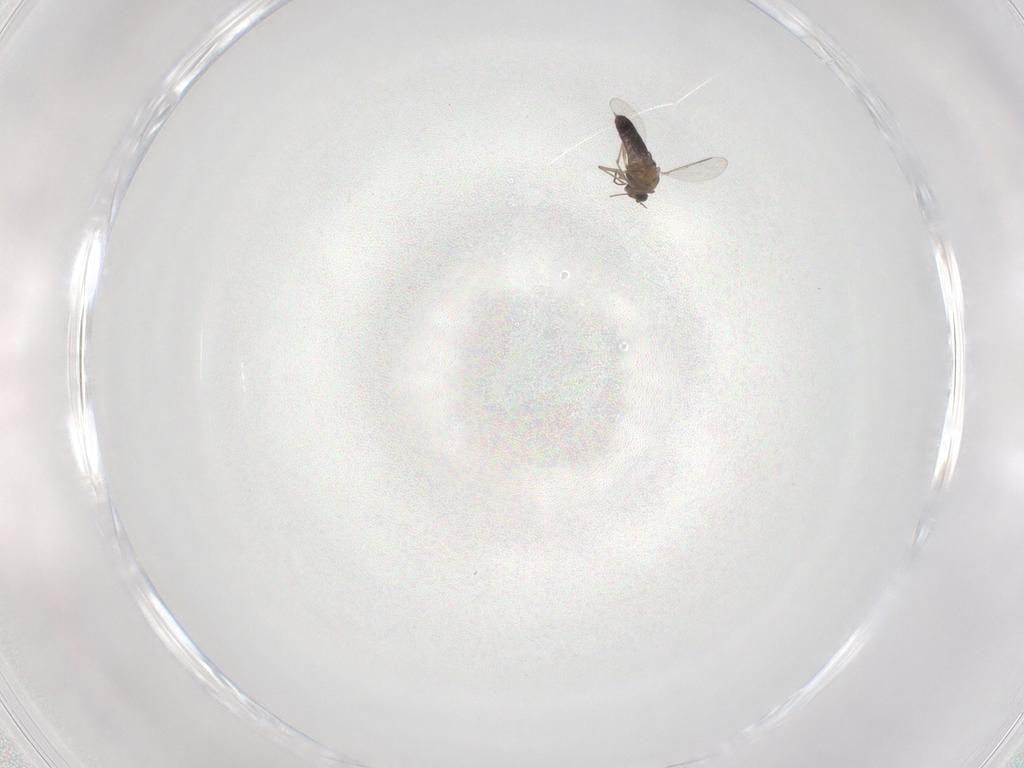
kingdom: Animalia
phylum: Arthropoda
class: Insecta
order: Diptera
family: Chironomidae
